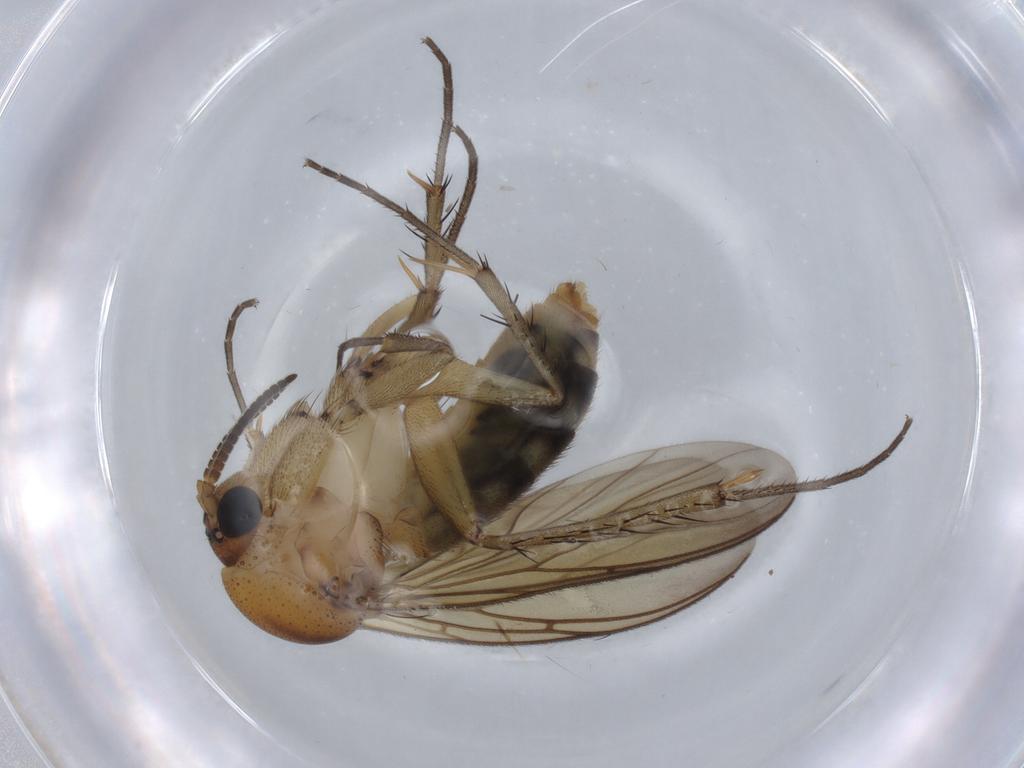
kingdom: Animalia
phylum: Arthropoda
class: Insecta
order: Diptera
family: Mycetophilidae
